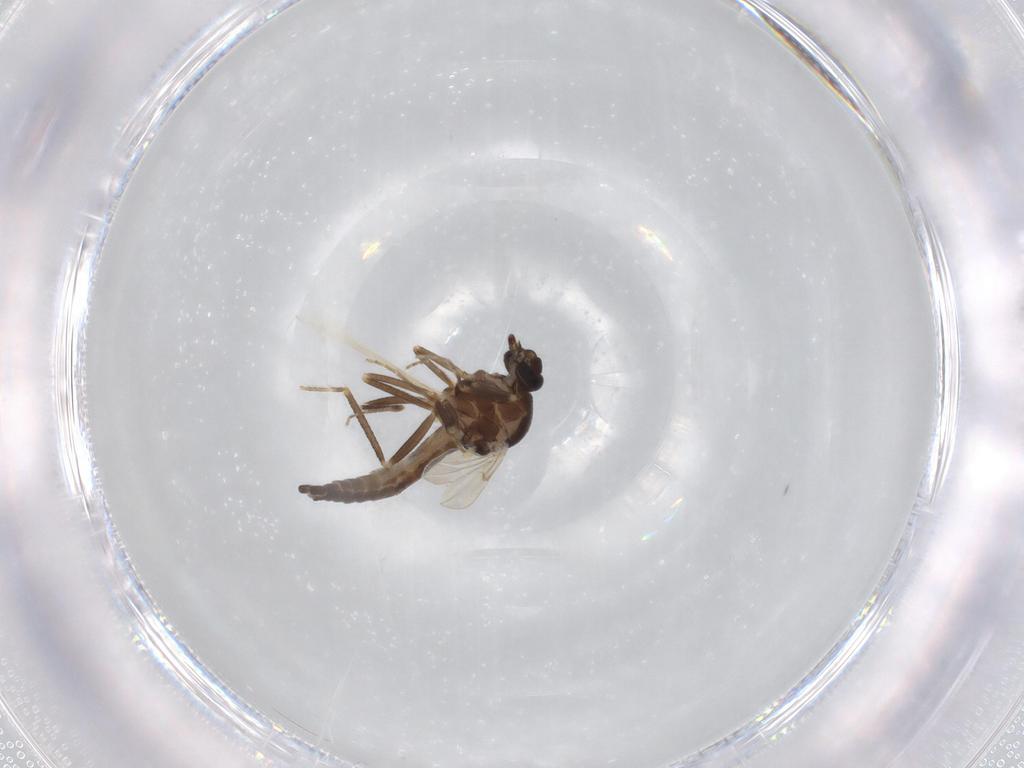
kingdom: Animalia
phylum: Arthropoda
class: Insecta
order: Diptera
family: Ceratopogonidae
